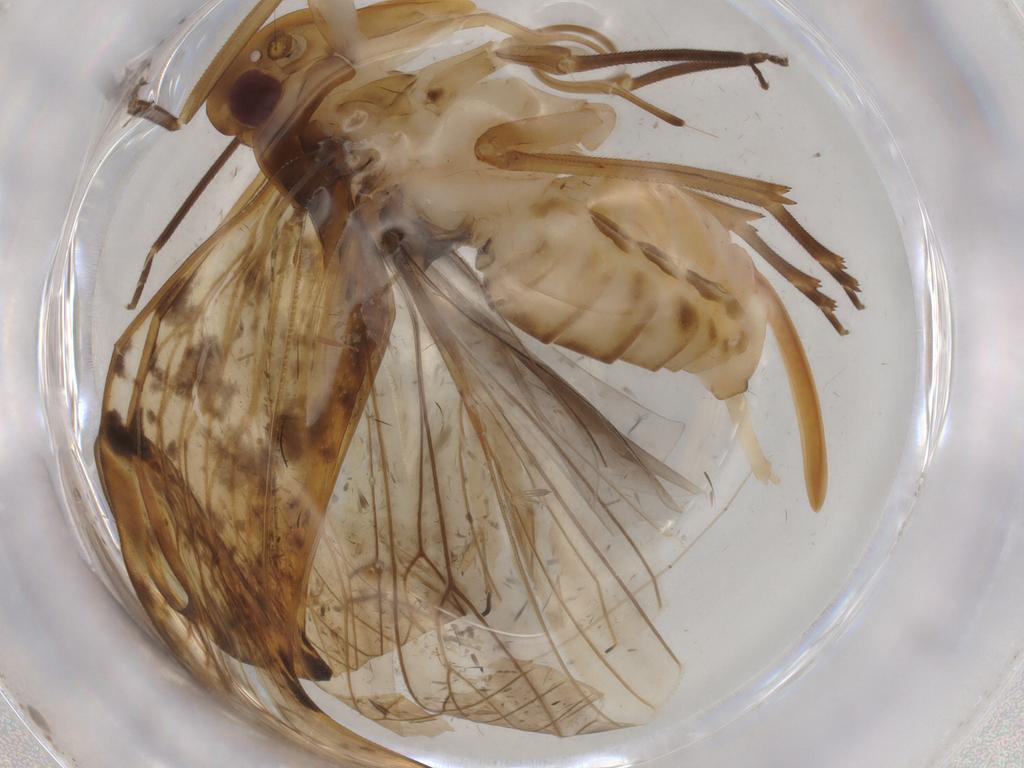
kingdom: Animalia
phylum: Arthropoda
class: Insecta
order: Hemiptera
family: Cixiidae
